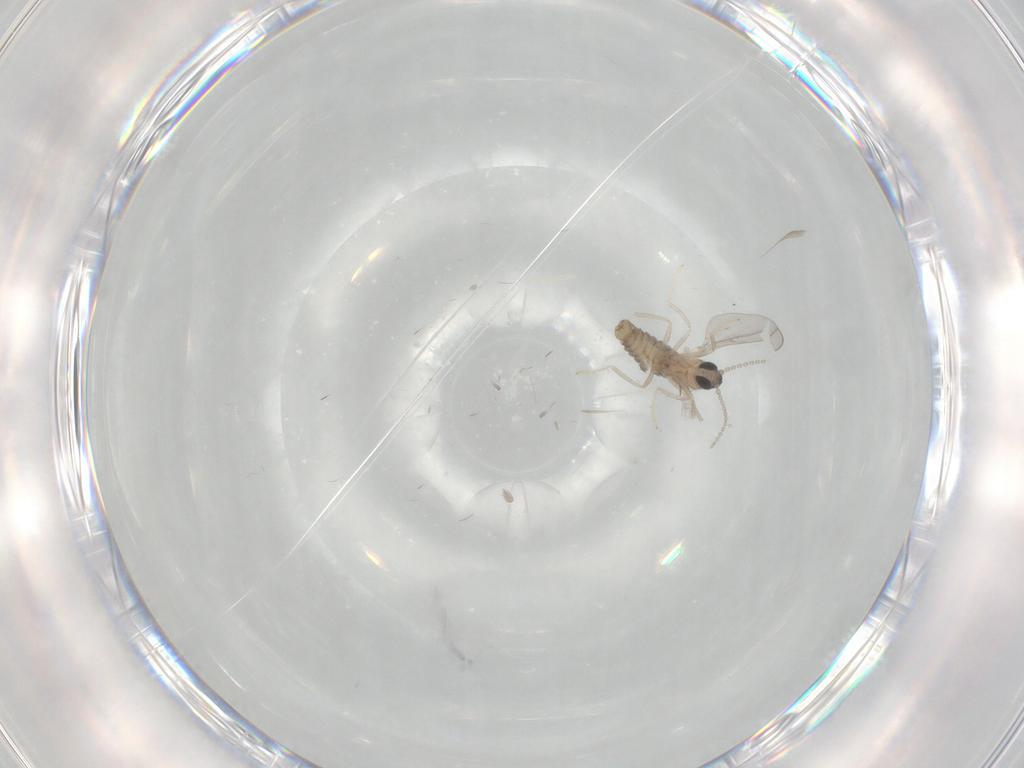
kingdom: Animalia
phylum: Arthropoda
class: Insecta
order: Diptera
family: Cecidomyiidae
